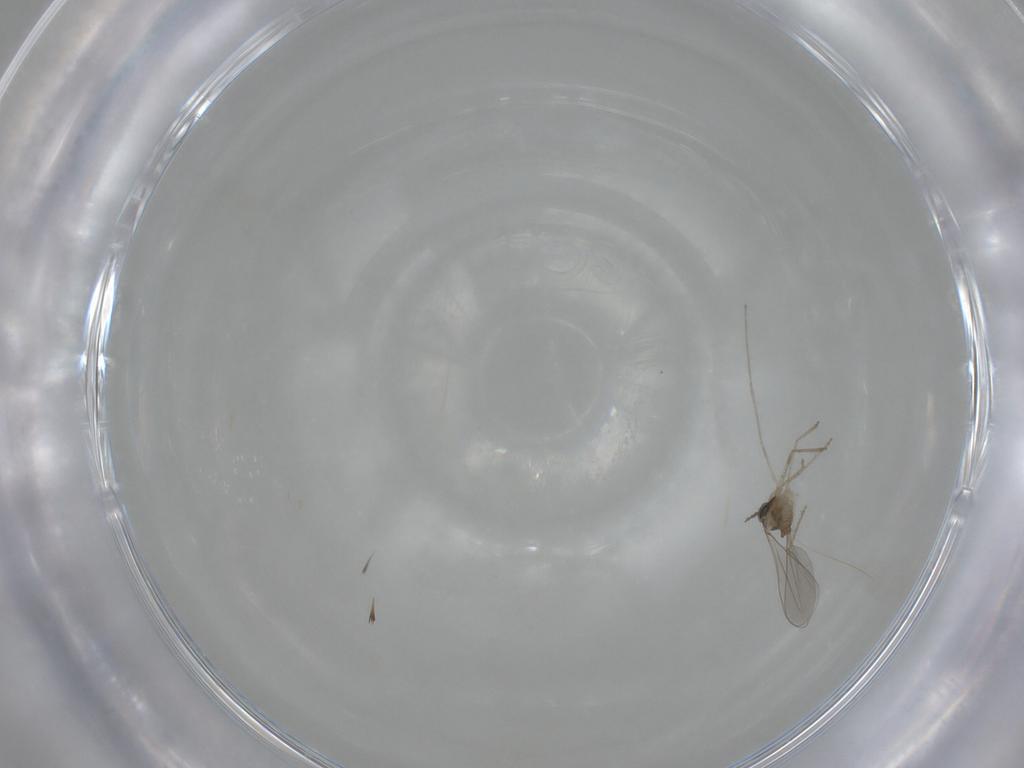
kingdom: Animalia
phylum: Arthropoda
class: Insecta
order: Diptera
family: Cecidomyiidae
